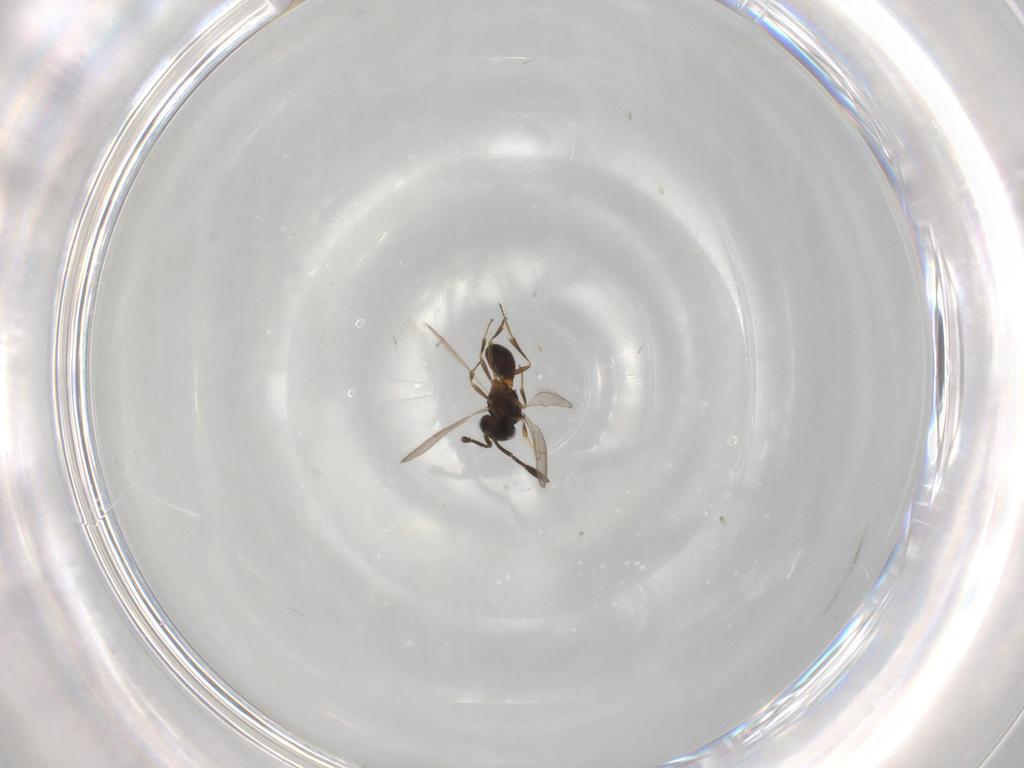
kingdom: Animalia
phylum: Arthropoda
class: Insecta
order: Hymenoptera
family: Scelionidae
